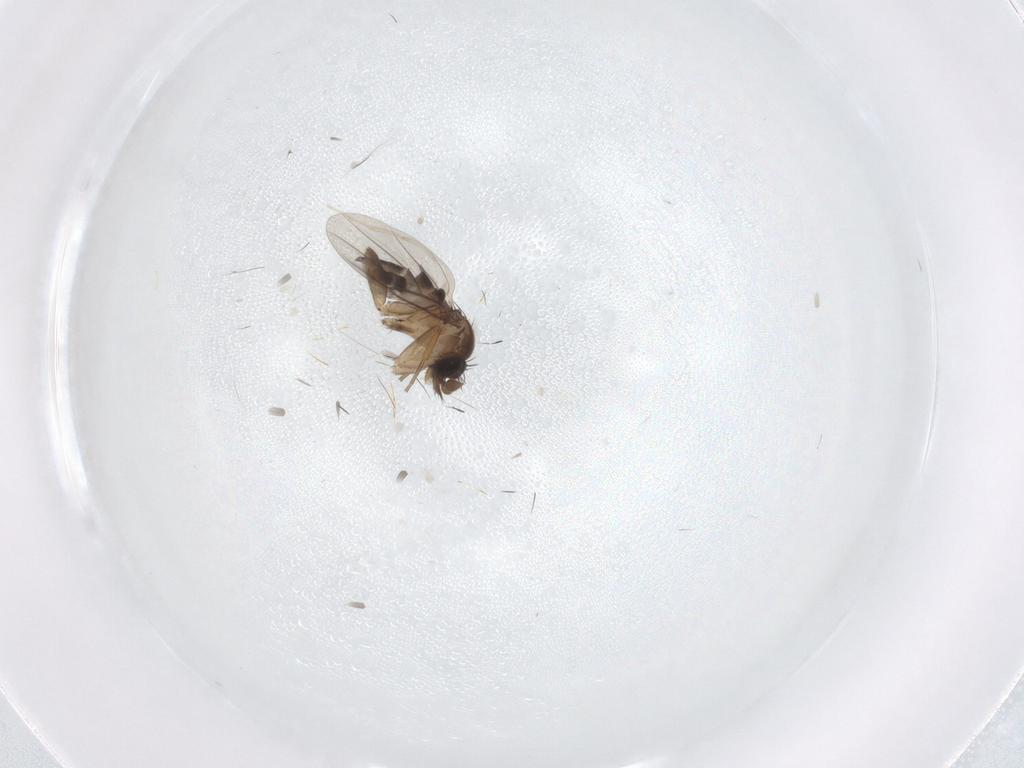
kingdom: Animalia
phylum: Arthropoda
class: Insecta
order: Diptera
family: Phoridae
